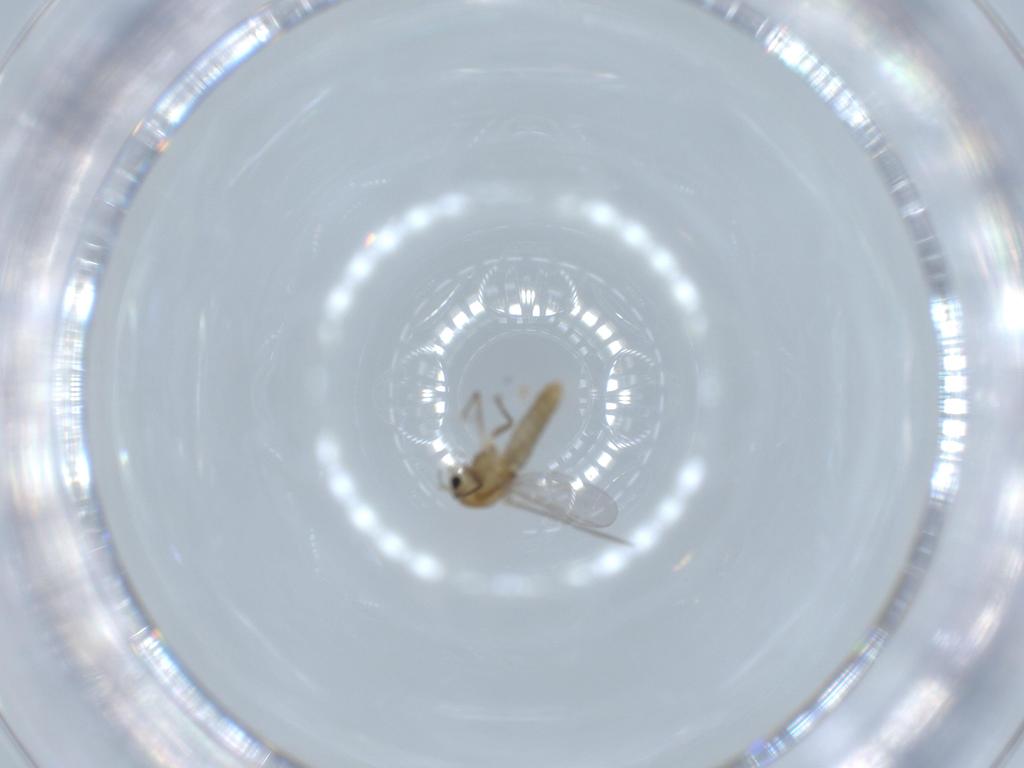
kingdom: Animalia
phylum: Arthropoda
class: Insecta
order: Diptera
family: Chironomidae
